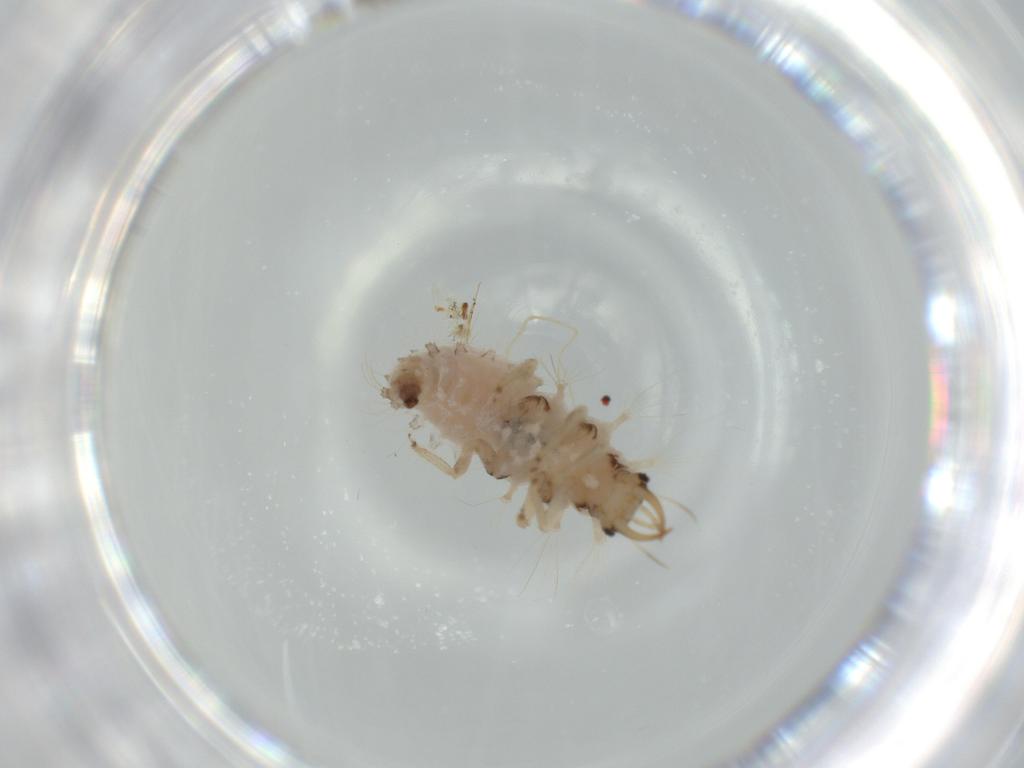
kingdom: Animalia
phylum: Arthropoda
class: Insecta
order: Neuroptera
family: Chrysopidae
